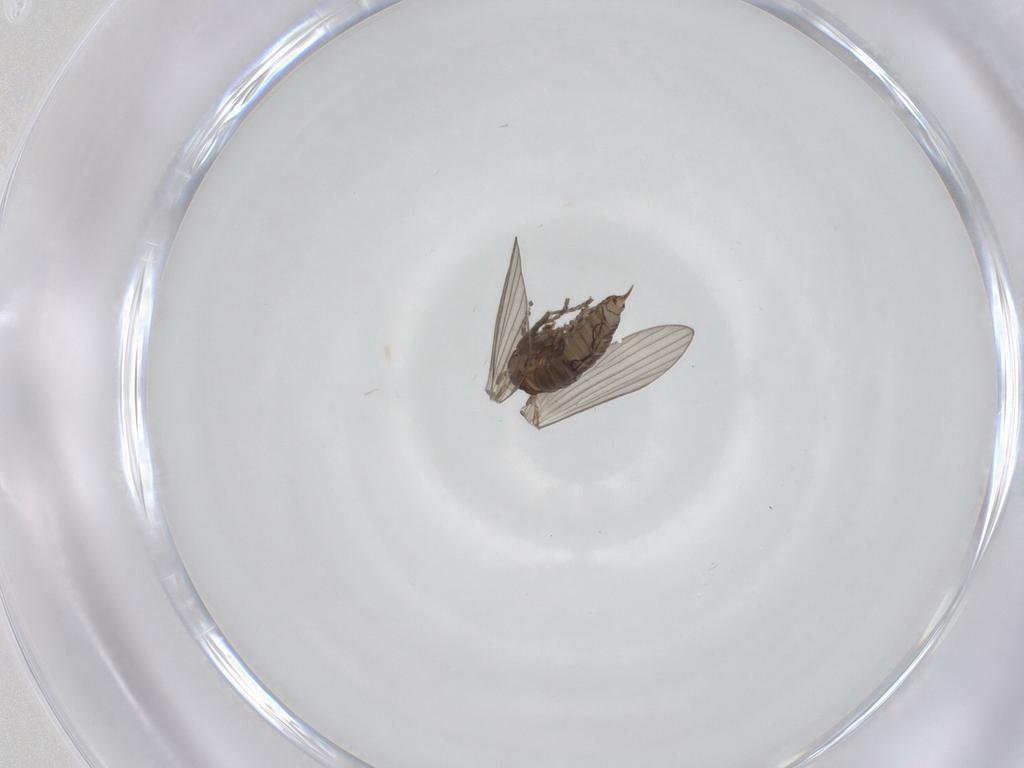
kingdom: Animalia
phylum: Arthropoda
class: Insecta
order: Diptera
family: Psychodidae
